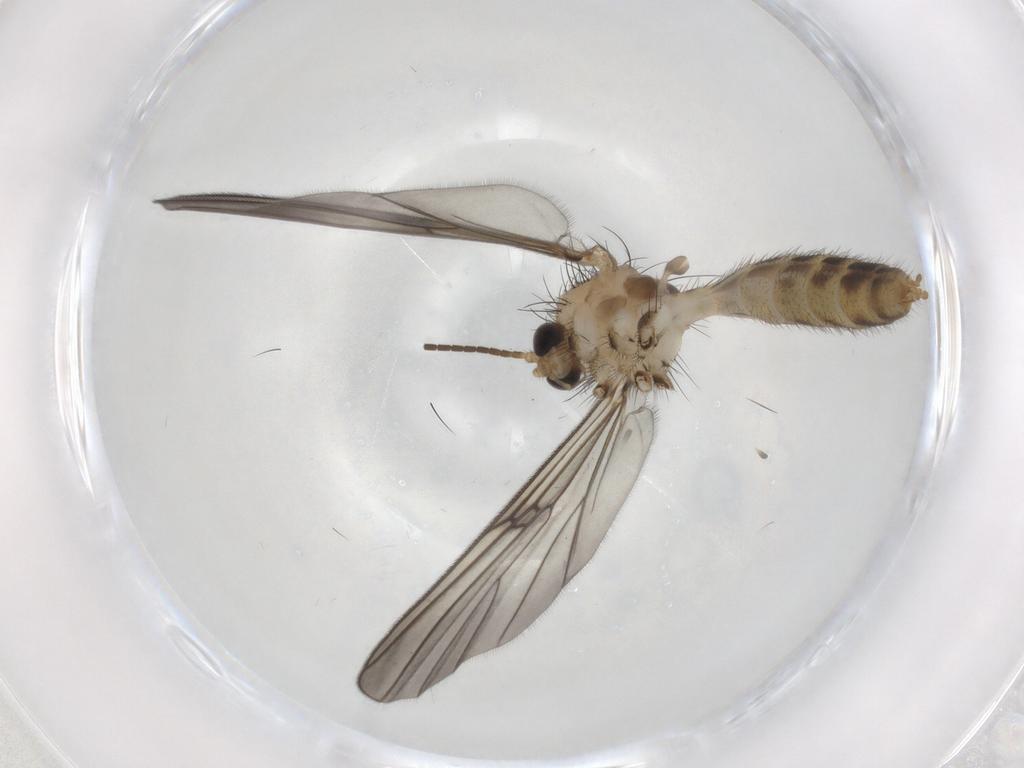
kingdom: Animalia
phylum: Arthropoda
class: Insecta
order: Diptera
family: Mycetophilidae
